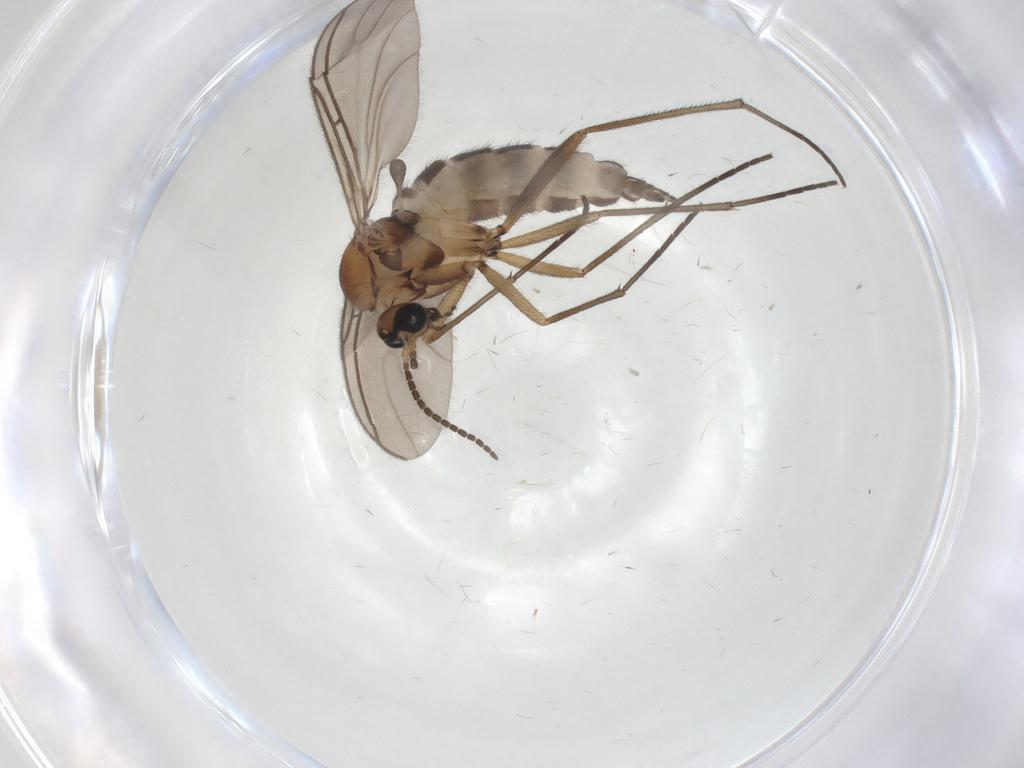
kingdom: Animalia
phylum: Arthropoda
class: Insecta
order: Diptera
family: Sciaridae
